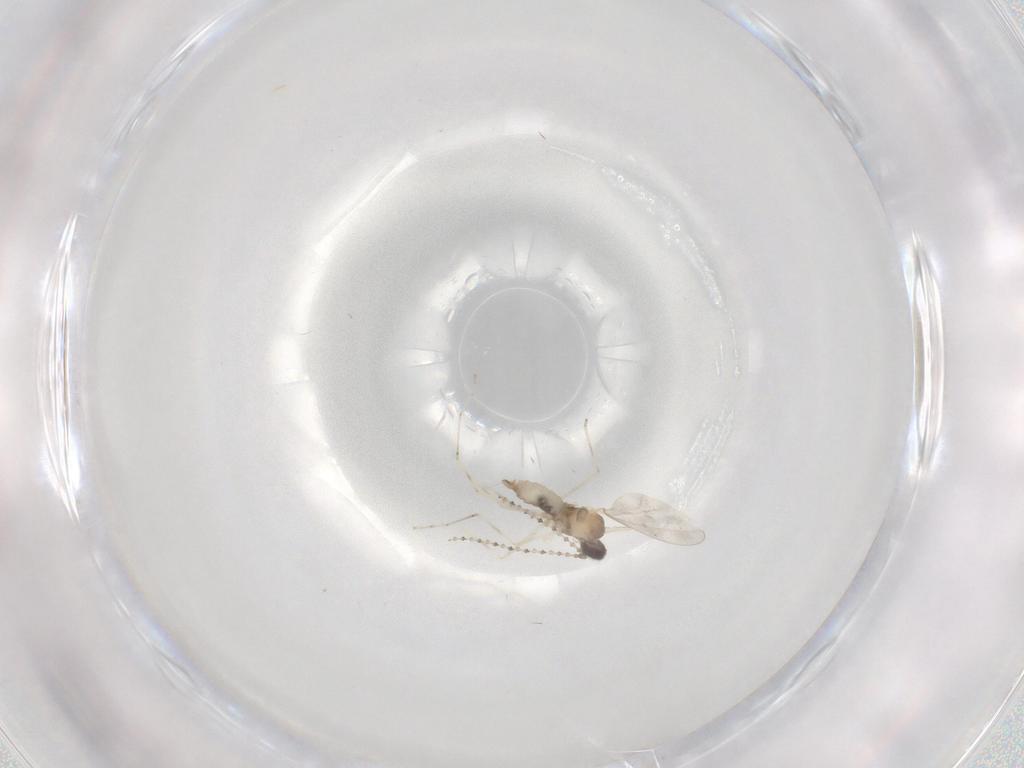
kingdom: Animalia
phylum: Arthropoda
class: Insecta
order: Diptera
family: Cecidomyiidae
